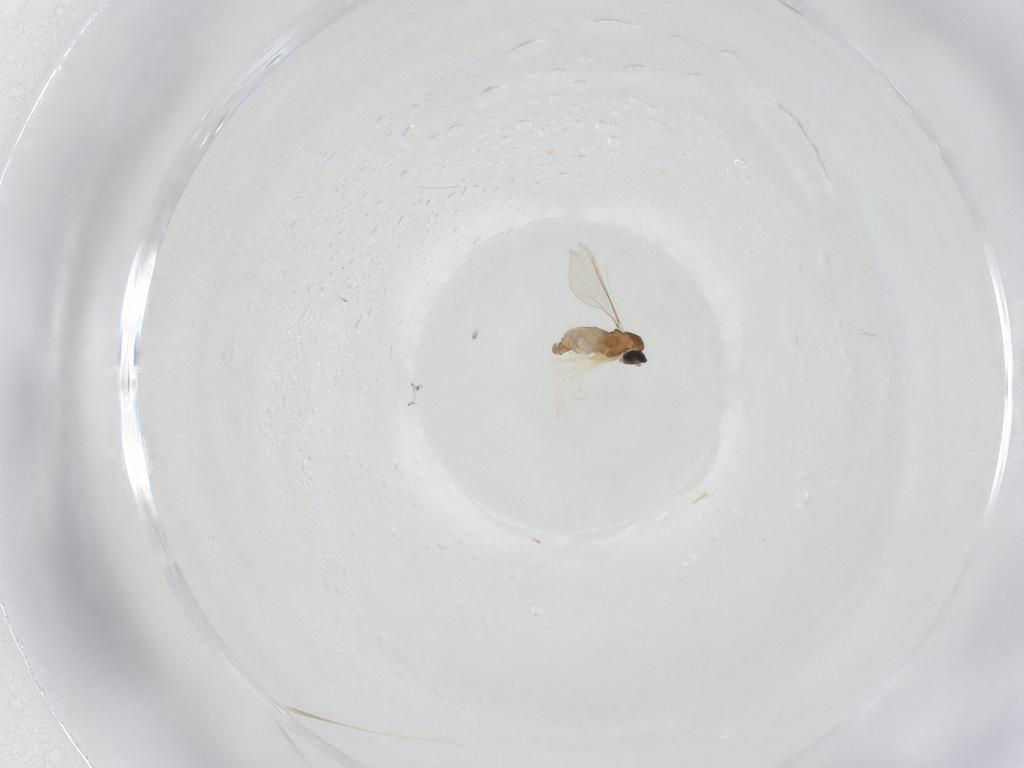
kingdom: Animalia
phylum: Arthropoda
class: Insecta
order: Diptera
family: Cecidomyiidae
